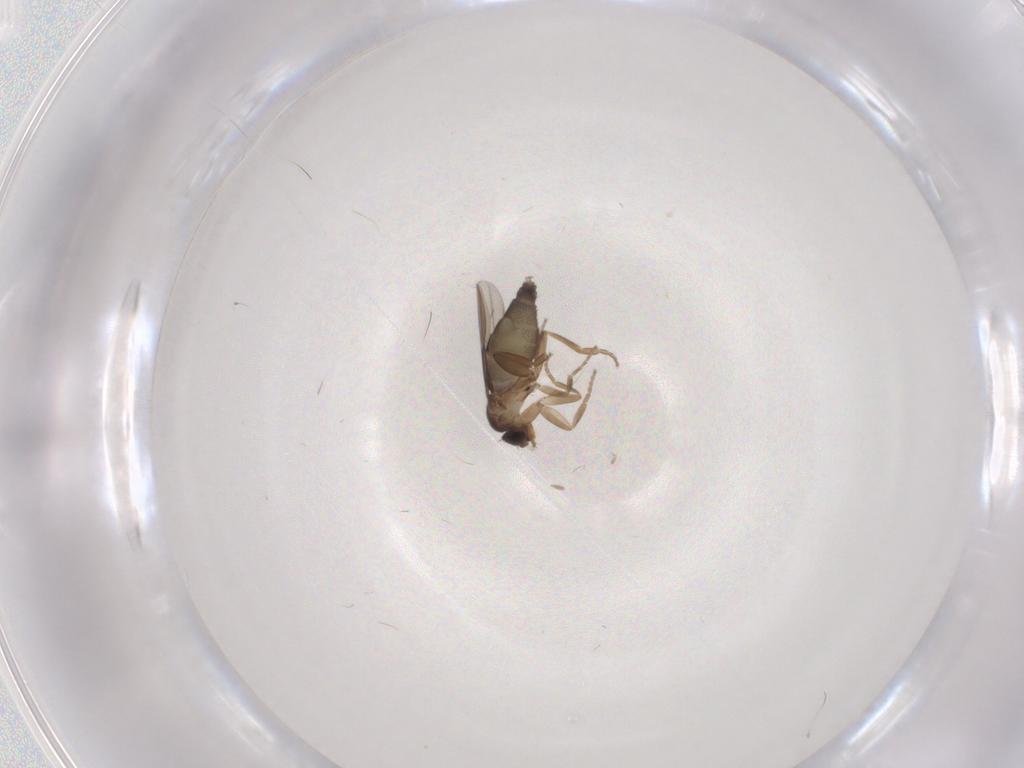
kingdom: Animalia
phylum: Arthropoda
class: Insecta
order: Diptera
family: Phoridae
